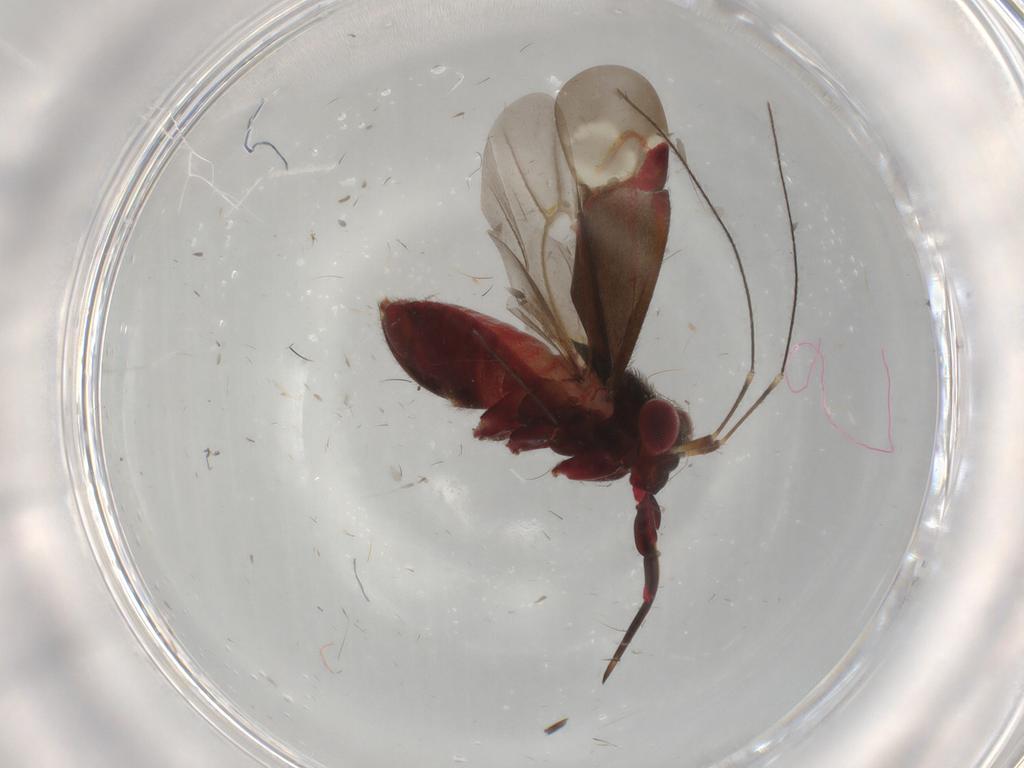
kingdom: Animalia
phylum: Arthropoda
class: Insecta
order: Hemiptera
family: Miridae
